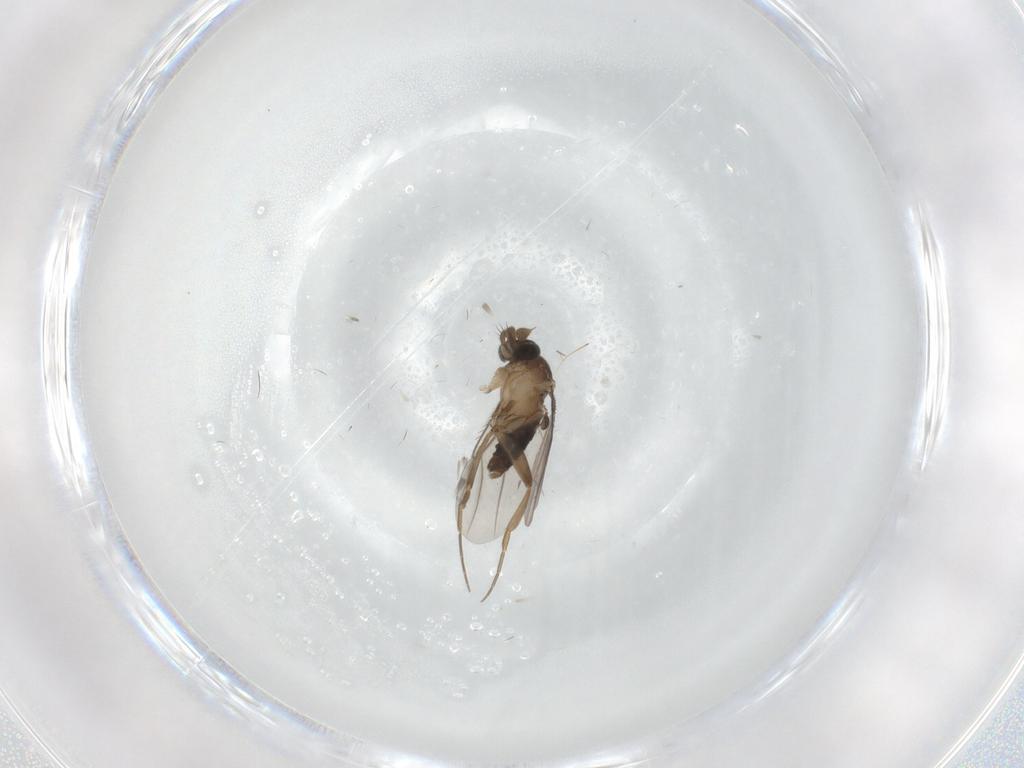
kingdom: Animalia
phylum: Arthropoda
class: Insecta
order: Diptera
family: Phoridae
